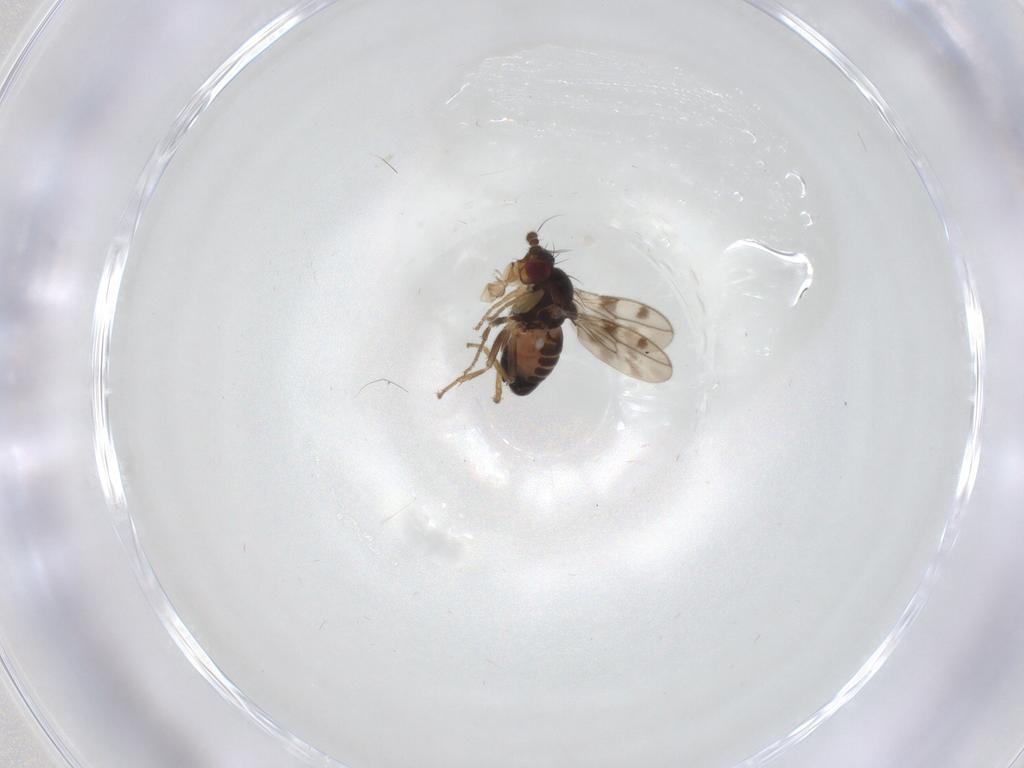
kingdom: Animalia
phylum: Arthropoda
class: Insecta
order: Diptera
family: Sphaeroceridae
